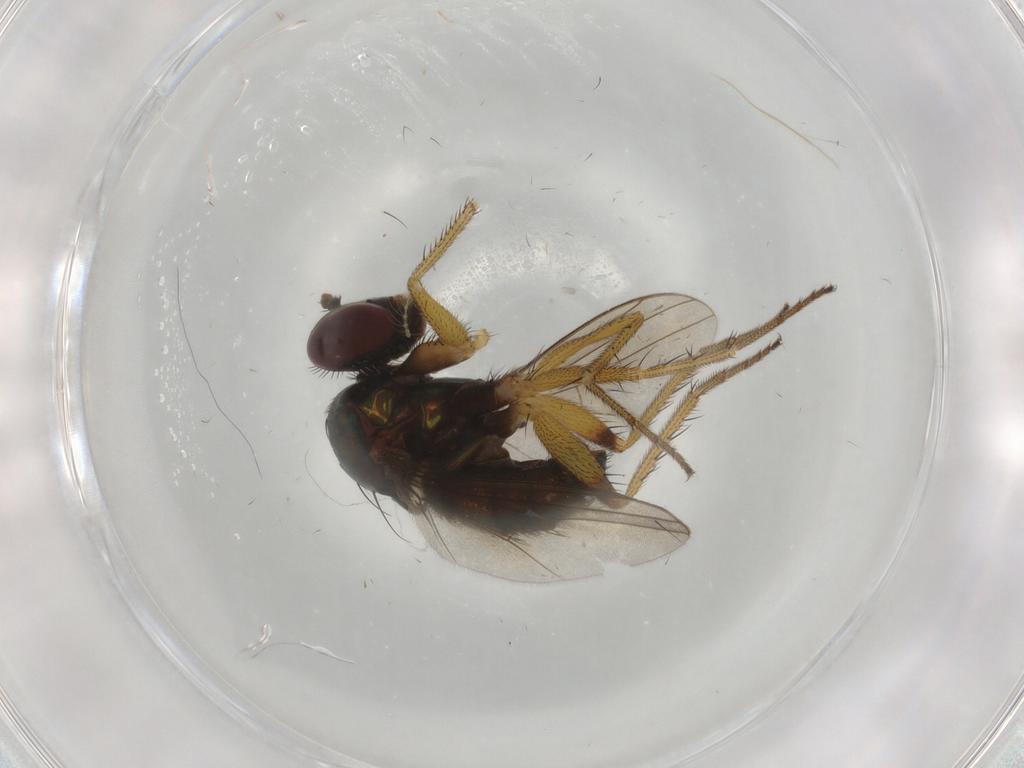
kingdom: Animalia
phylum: Arthropoda
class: Insecta
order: Diptera
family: Dolichopodidae
